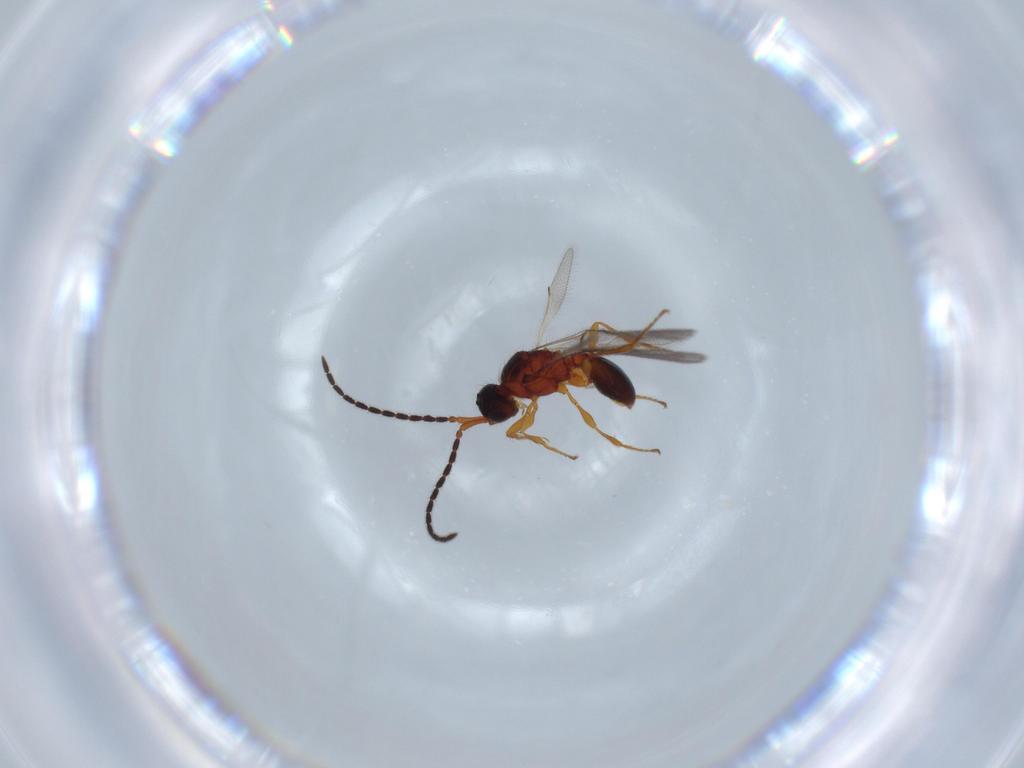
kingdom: Animalia
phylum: Arthropoda
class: Insecta
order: Hymenoptera
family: Diapriidae
